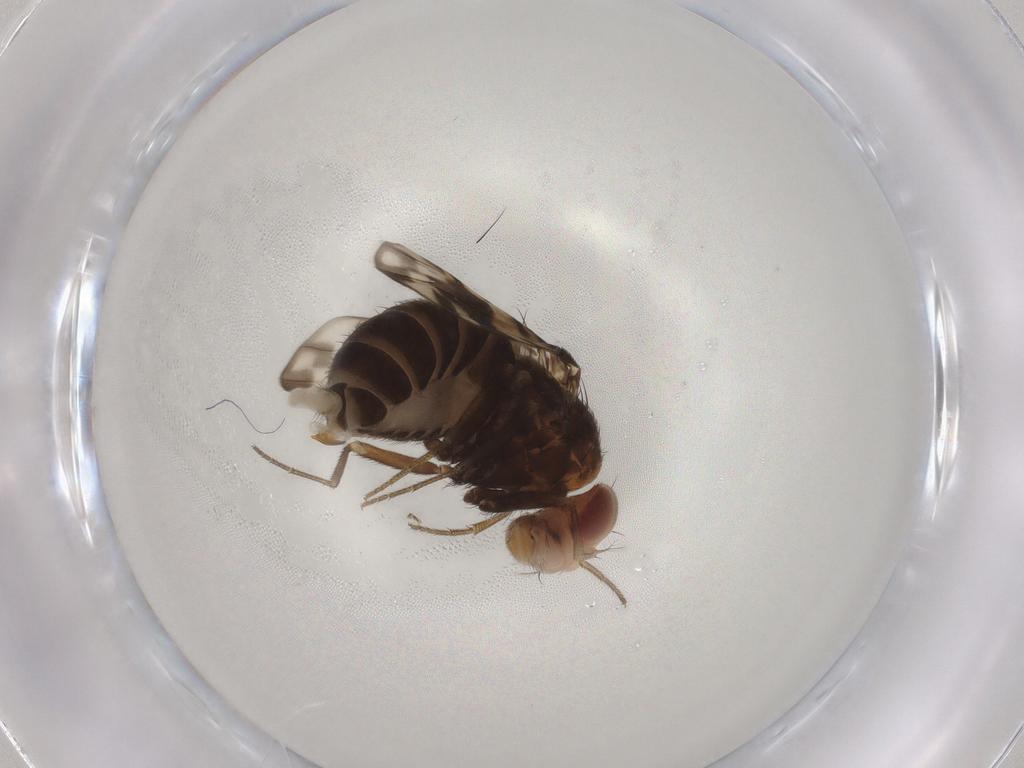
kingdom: Animalia
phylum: Arthropoda
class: Insecta
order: Diptera
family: Drosophilidae
